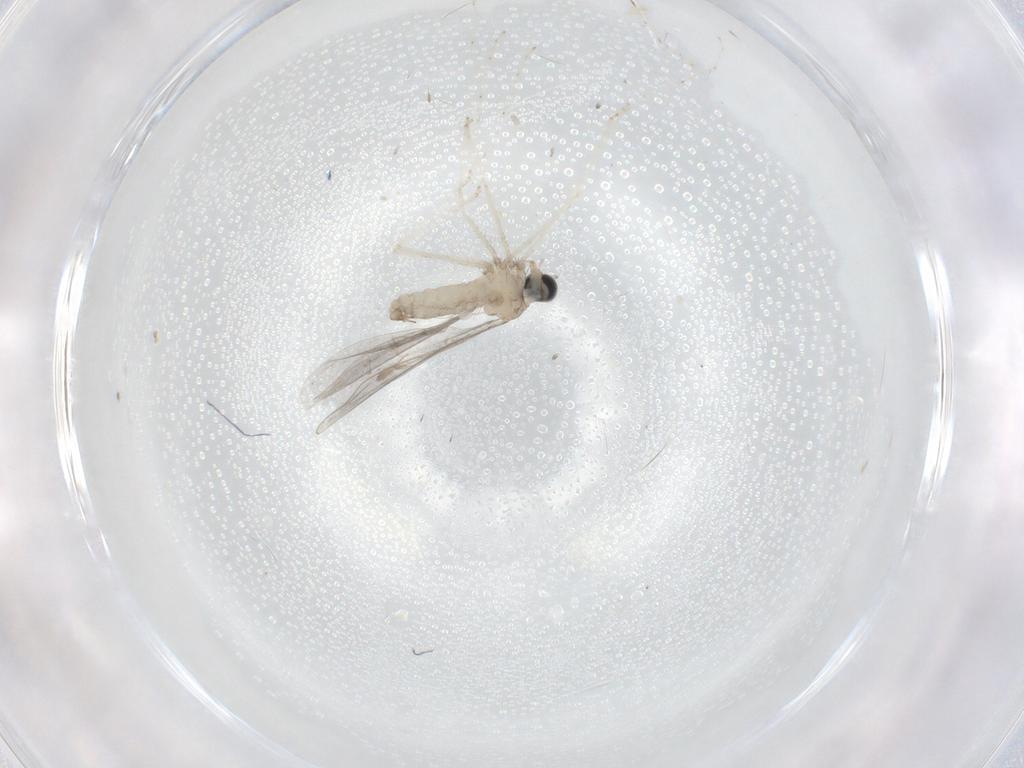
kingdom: Animalia
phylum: Arthropoda
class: Insecta
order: Diptera
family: Cecidomyiidae
